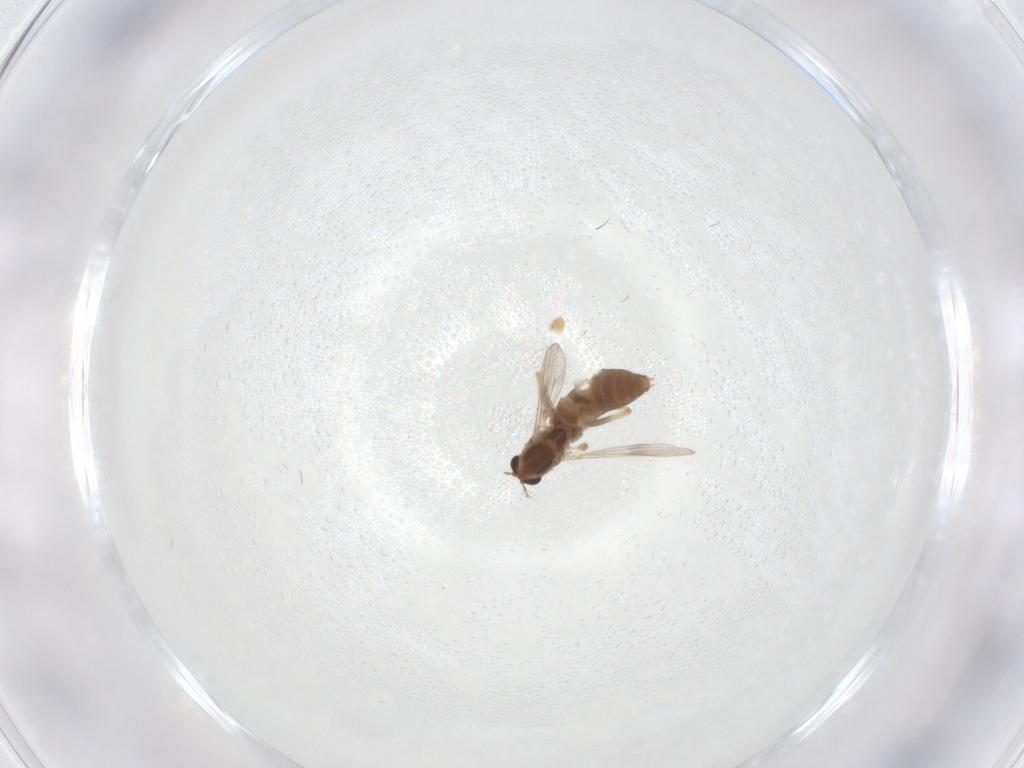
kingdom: Animalia
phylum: Arthropoda
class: Insecta
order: Diptera
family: Chironomidae
